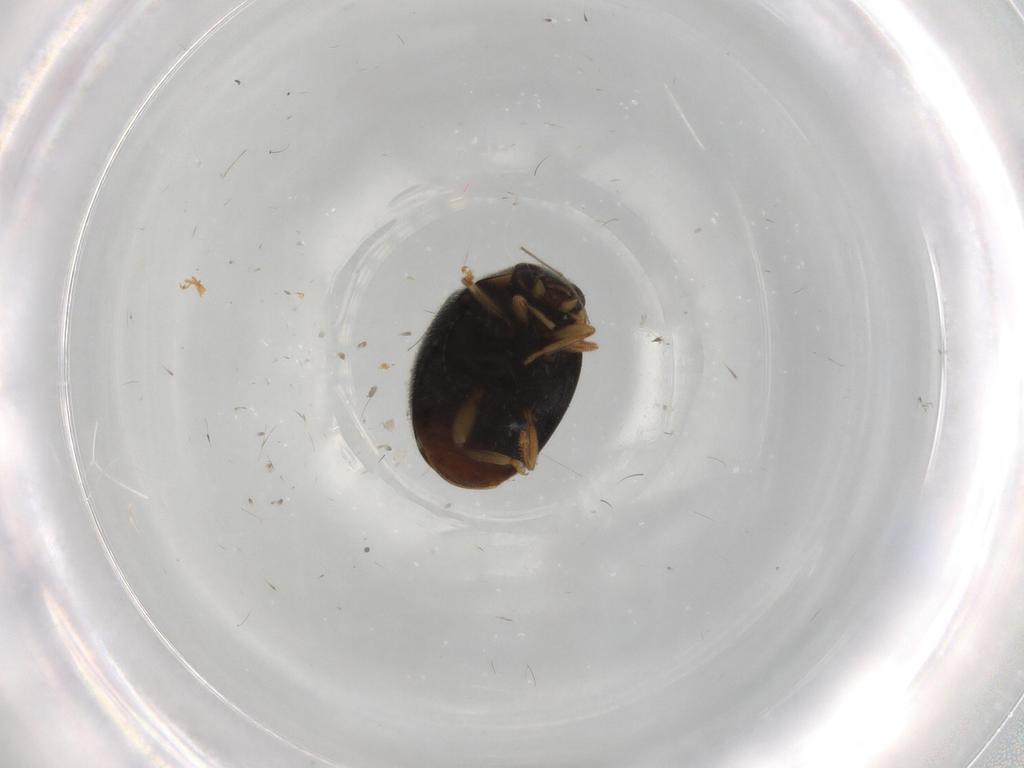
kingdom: Animalia
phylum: Arthropoda
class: Insecta
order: Coleoptera
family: Coccinellidae
